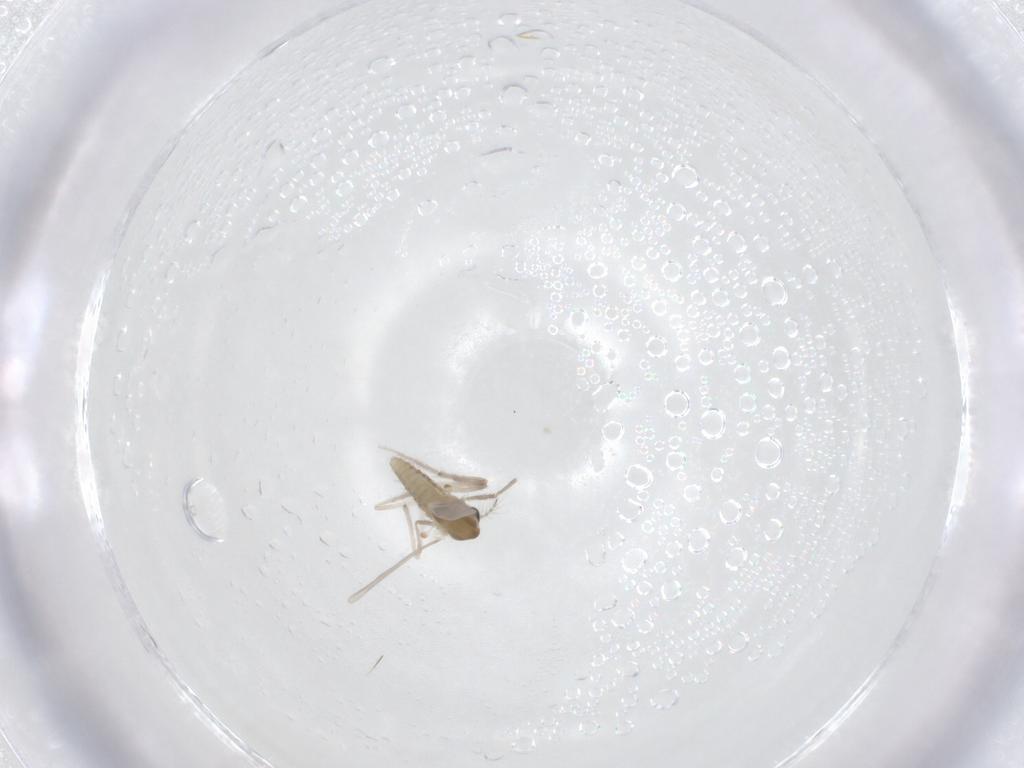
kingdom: Animalia
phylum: Arthropoda
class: Insecta
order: Diptera
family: Chironomidae
